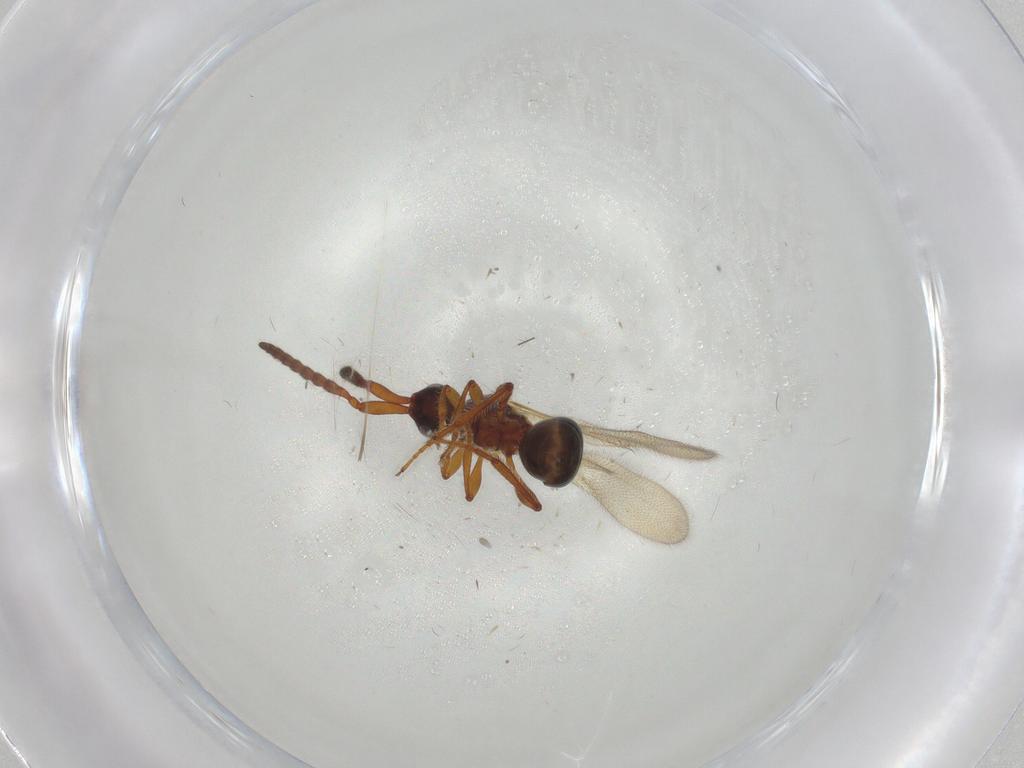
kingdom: Animalia
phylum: Arthropoda
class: Insecta
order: Hymenoptera
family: Diapriidae
